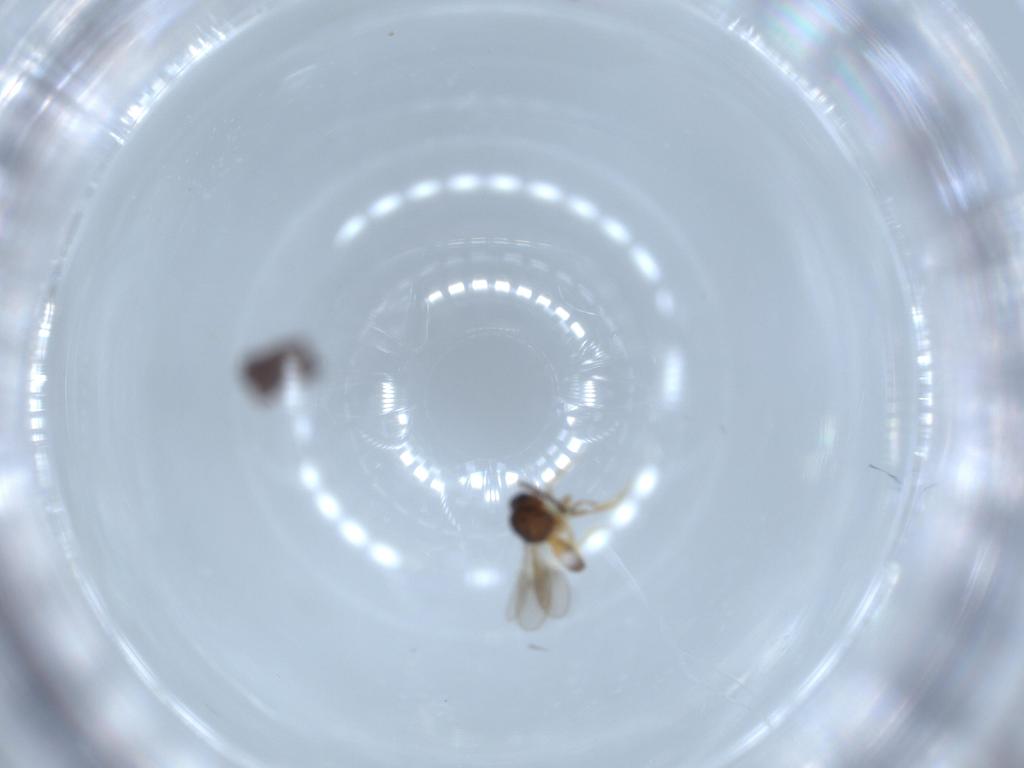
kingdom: Animalia
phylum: Arthropoda
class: Insecta
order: Hymenoptera
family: Scelionidae
